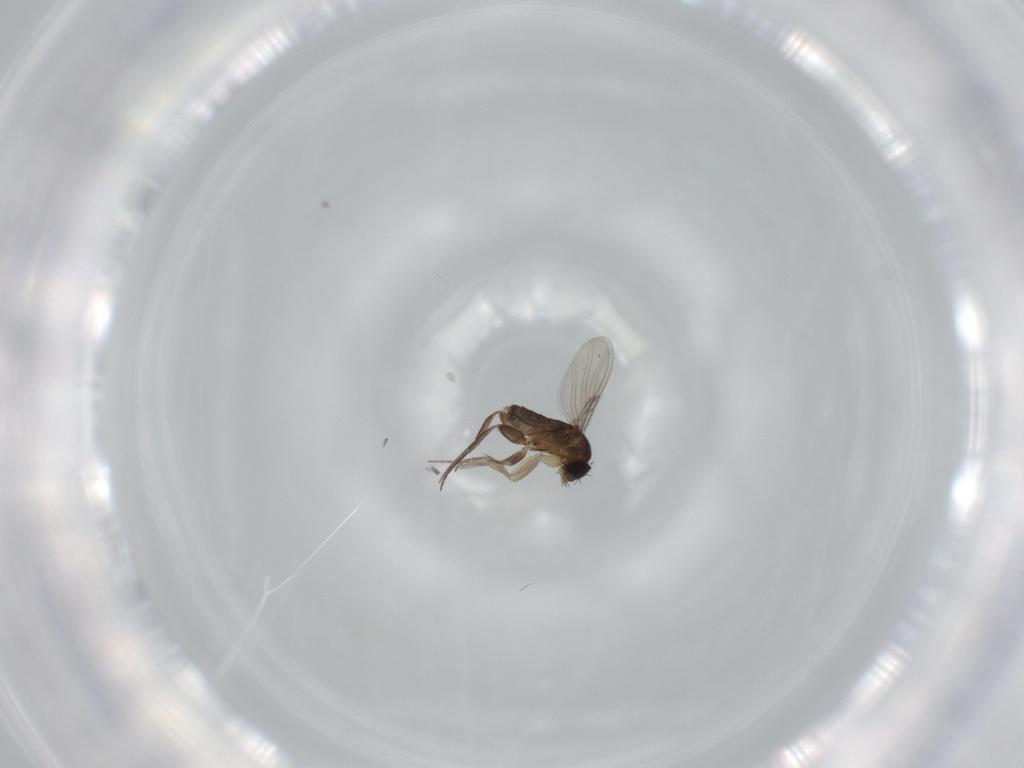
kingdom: Animalia
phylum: Arthropoda
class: Insecta
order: Diptera
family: Phoridae
